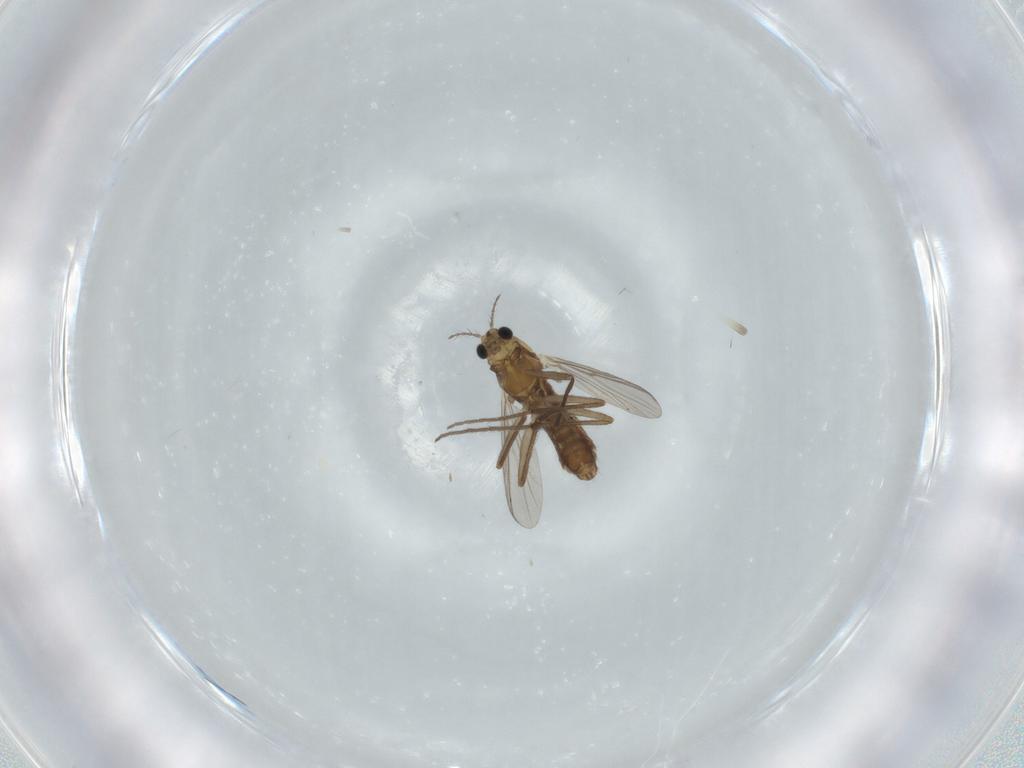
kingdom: Animalia
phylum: Arthropoda
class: Insecta
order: Diptera
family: Chironomidae
